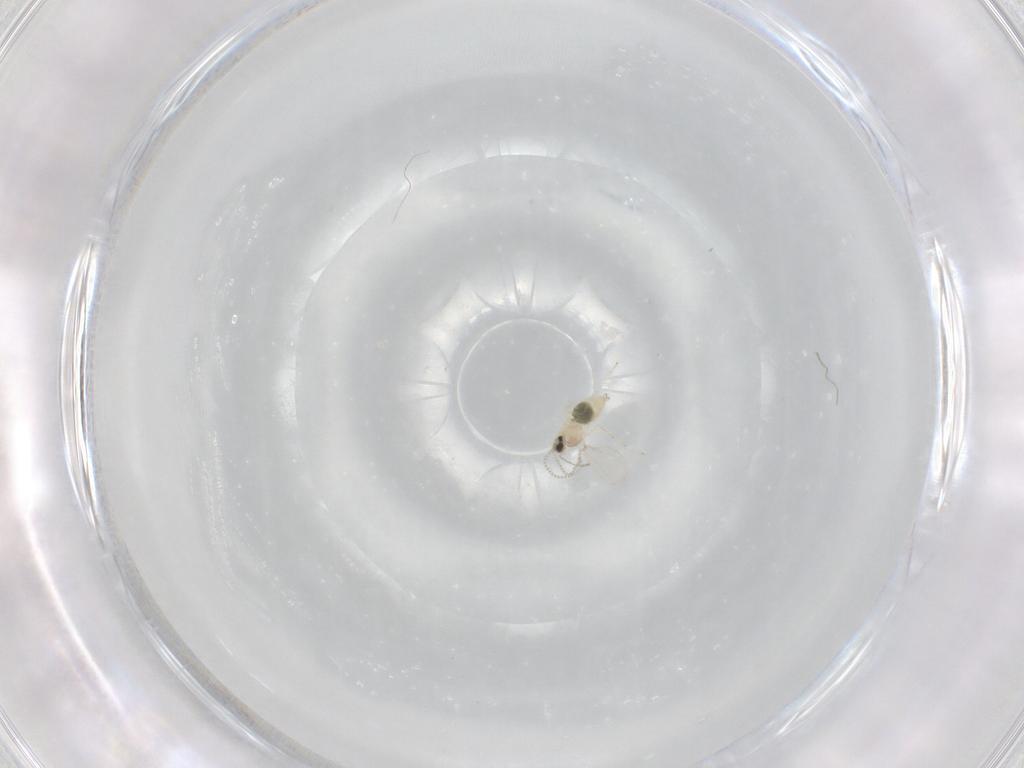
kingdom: Animalia
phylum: Arthropoda
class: Insecta
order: Diptera
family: Cecidomyiidae
